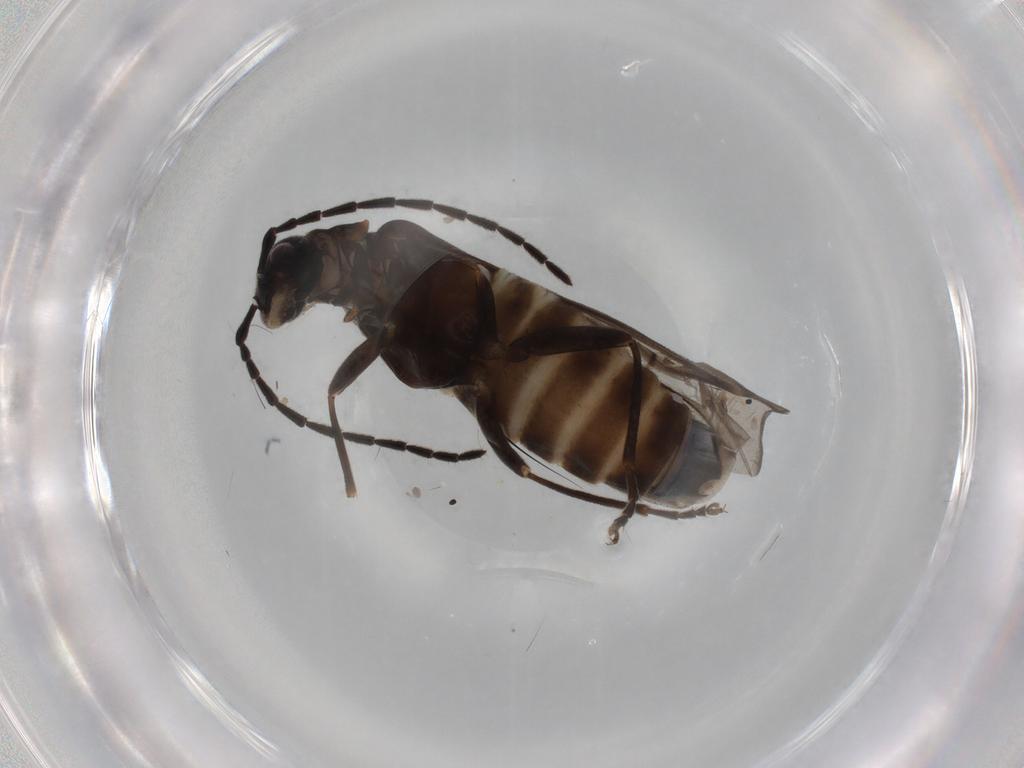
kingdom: Animalia
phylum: Arthropoda
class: Insecta
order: Coleoptera
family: Cantharidae
